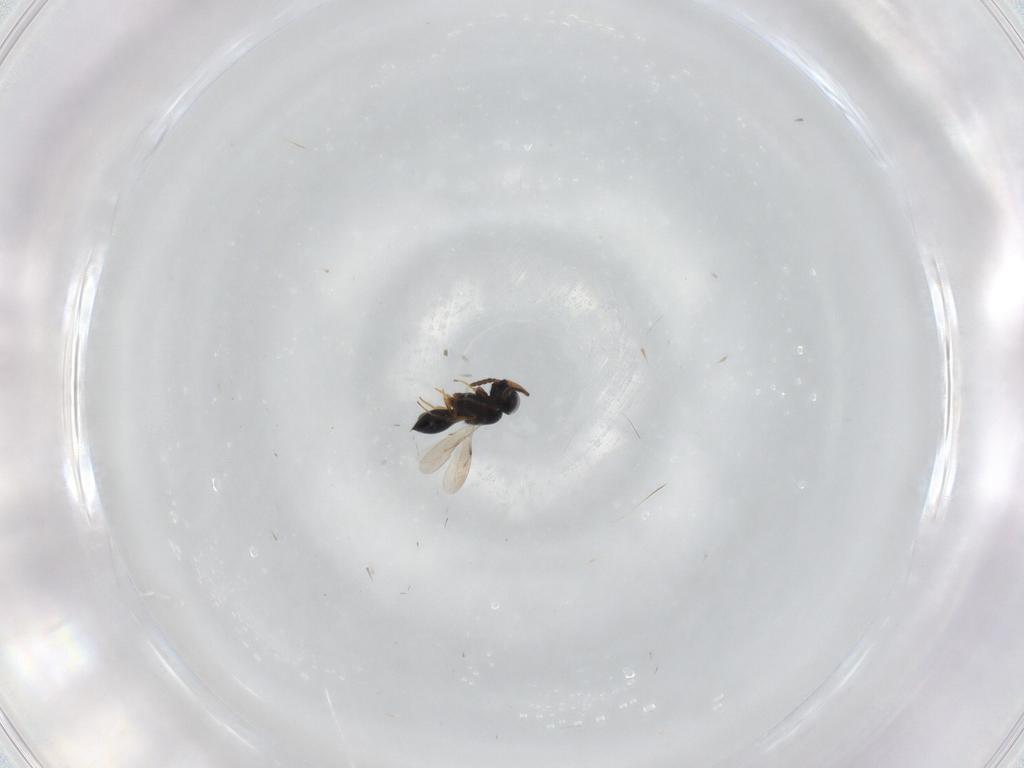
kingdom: Animalia
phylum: Arthropoda
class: Insecta
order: Hymenoptera
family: Scelionidae
